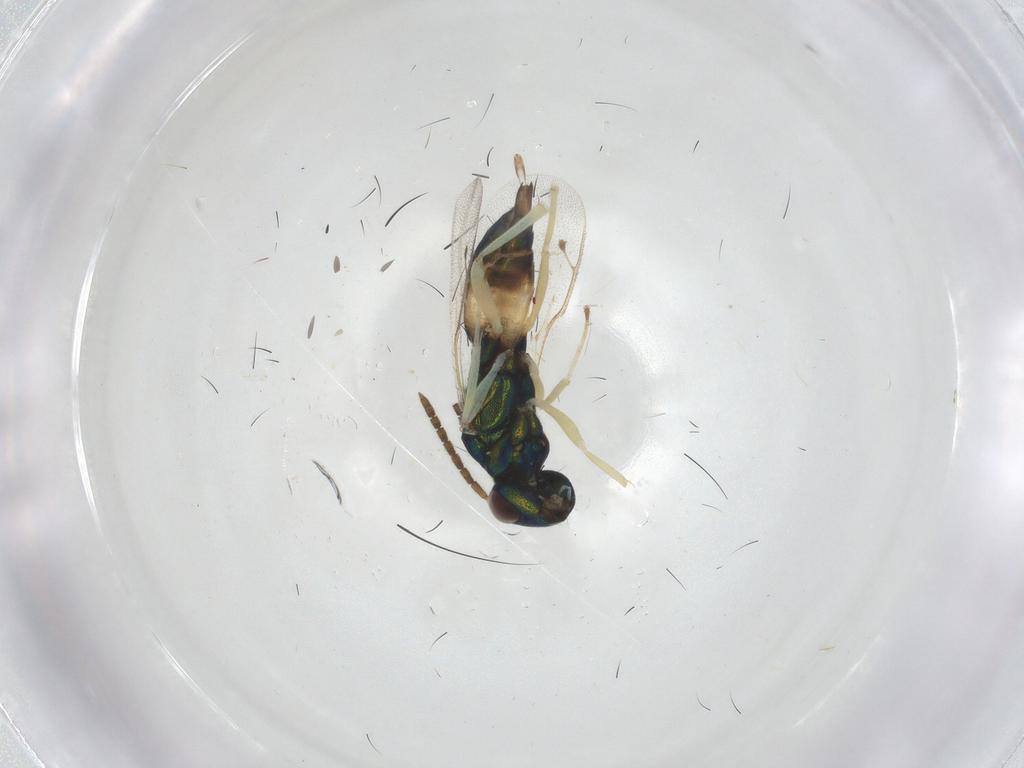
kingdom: Animalia
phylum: Arthropoda
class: Insecta
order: Hymenoptera
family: Pteromalidae
